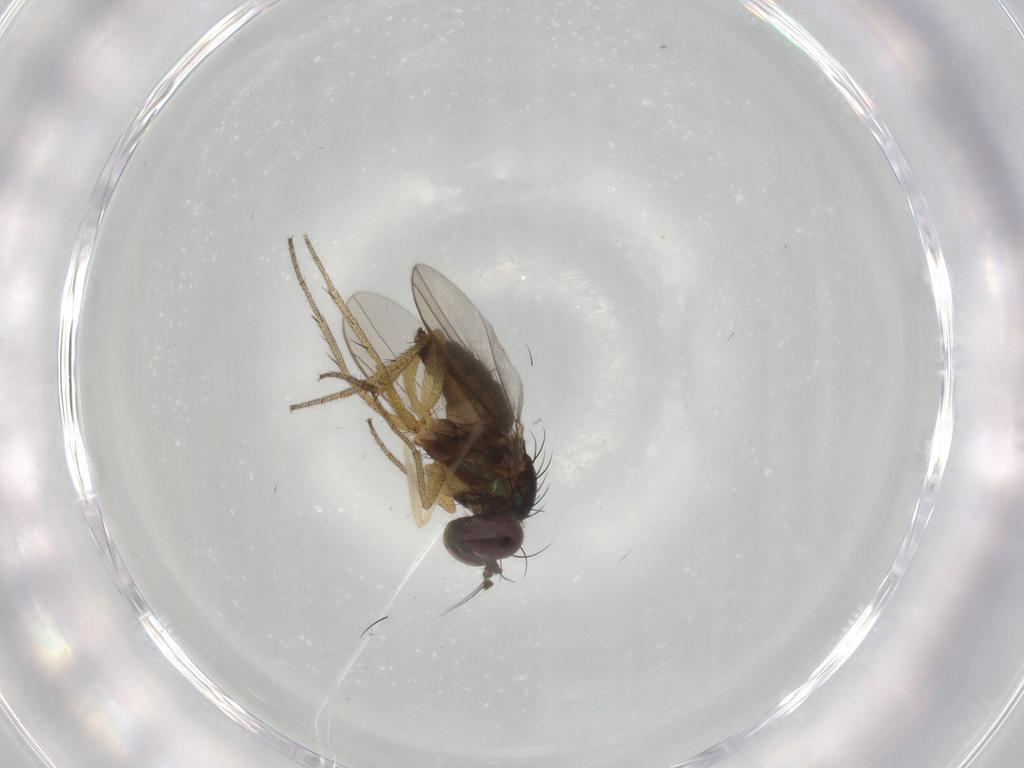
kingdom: Animalia
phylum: Arthropoda
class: Insecta
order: Diptera
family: Dolichopodidae
